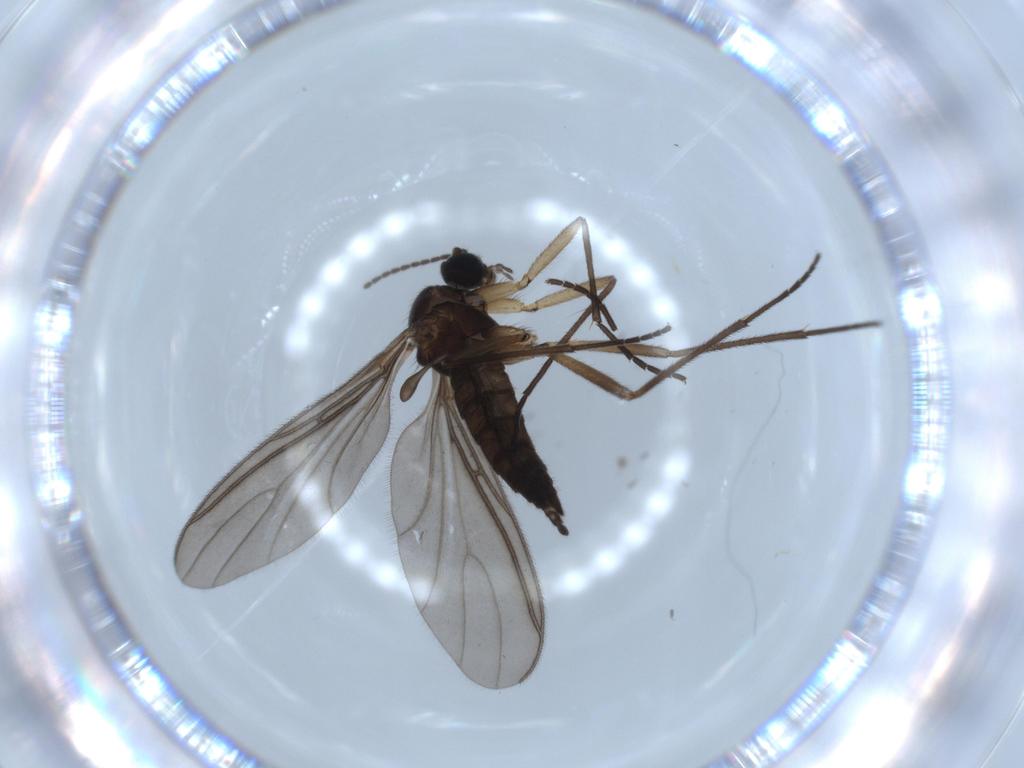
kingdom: Animalia
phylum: Arthropoda
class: Insecta
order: Diptera
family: Sciaridae
